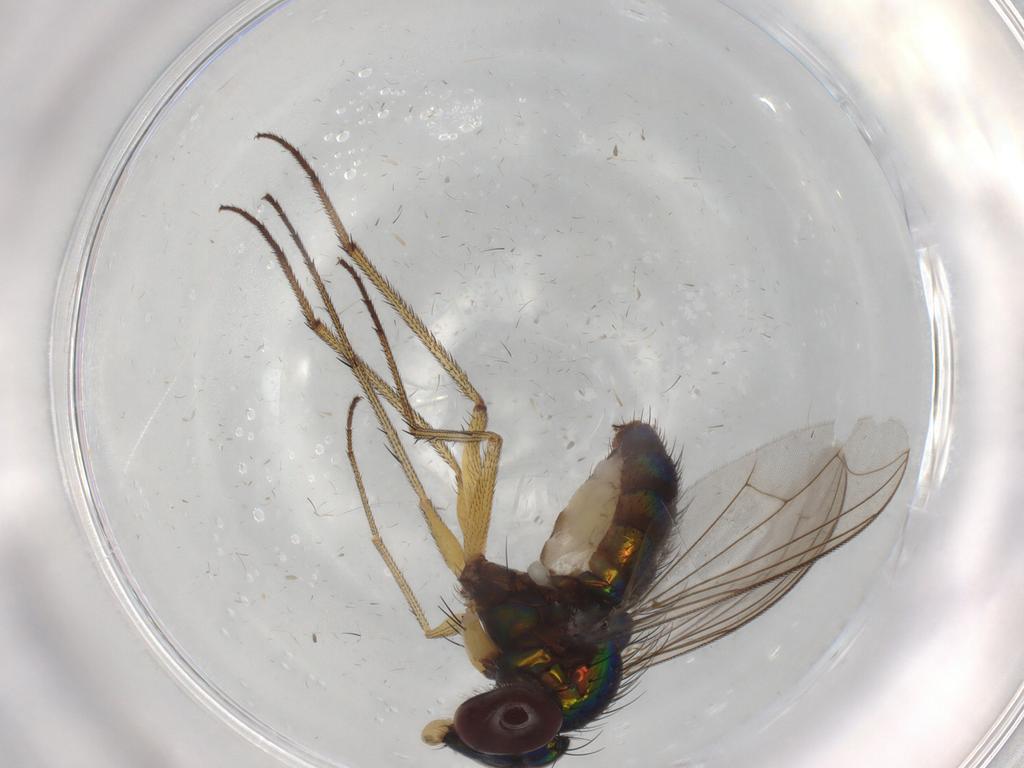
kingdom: Animalia
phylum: Arthropoda
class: Insecta
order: Diptera
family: Dolichopodidae
